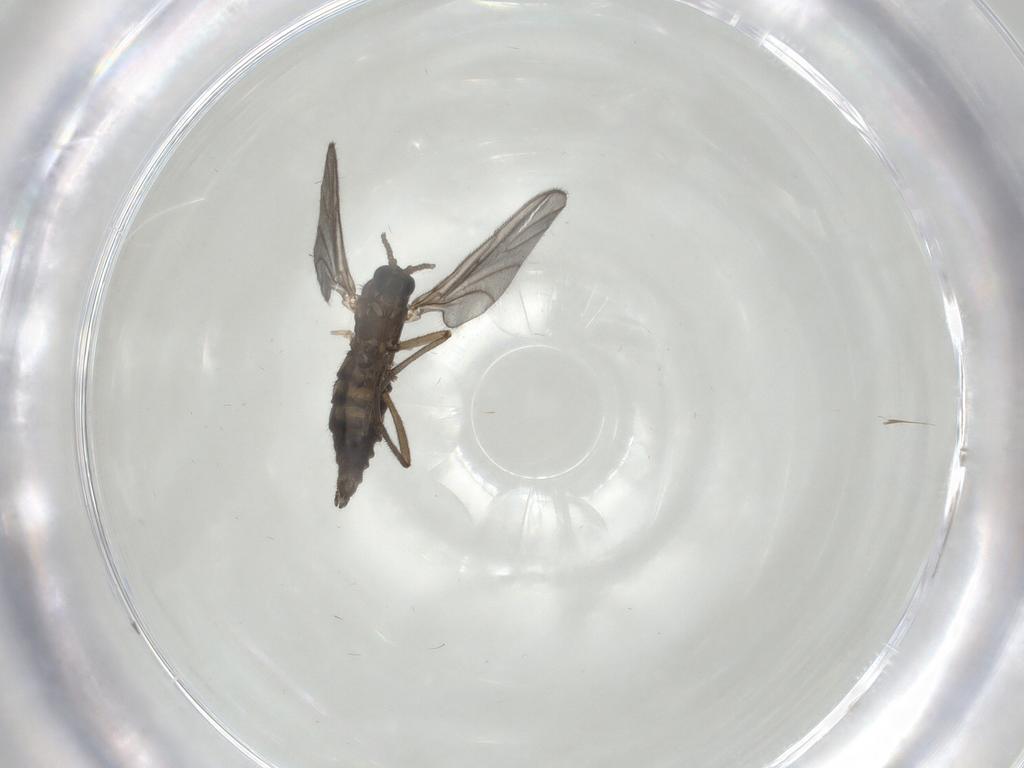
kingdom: Animalia
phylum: Arthropoda
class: Insecta
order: Diptera
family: Sciaridae
